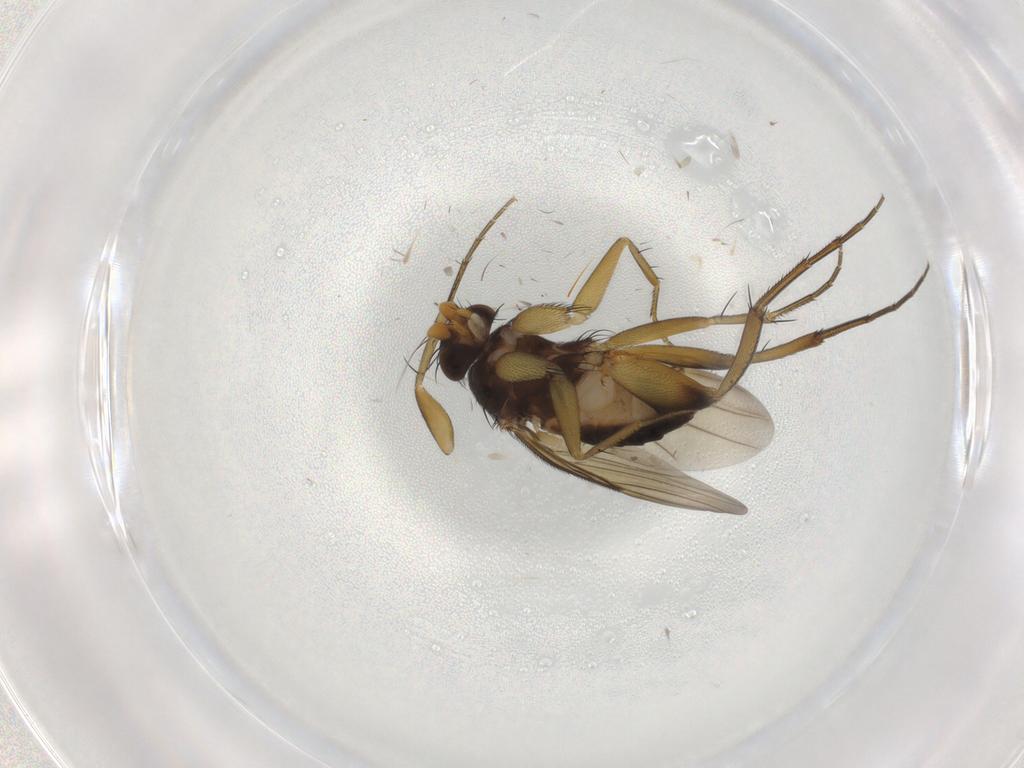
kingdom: Animalia
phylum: Arthropoda
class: Insecta
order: Diptera
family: Phoridae
